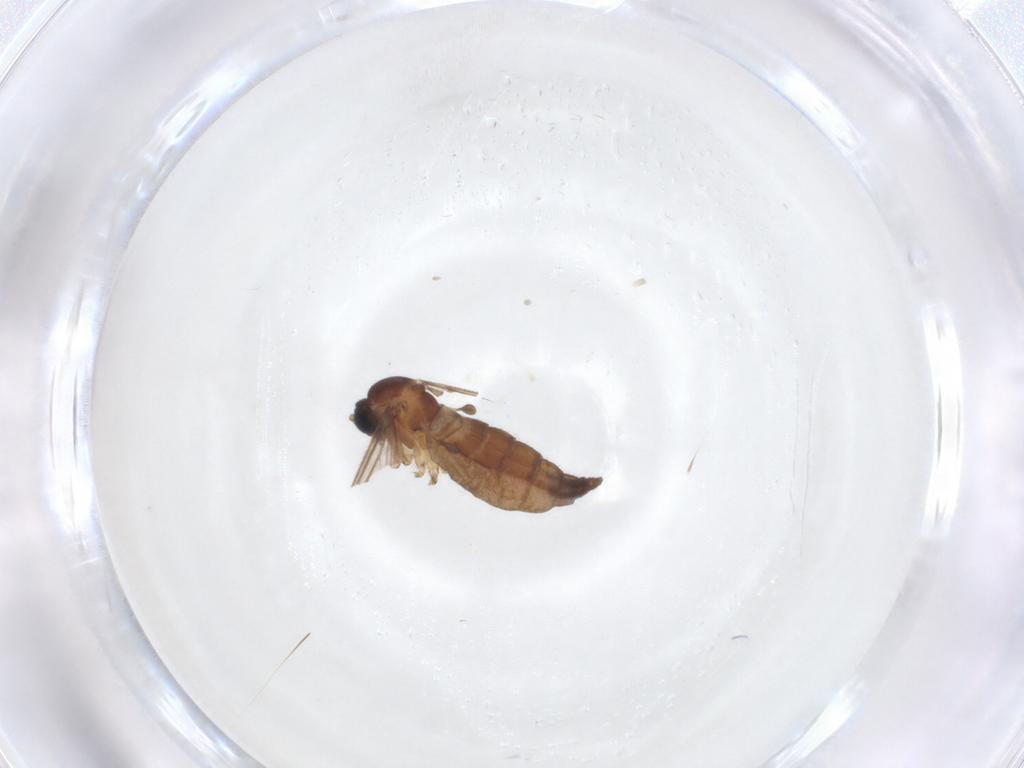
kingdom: Animalia
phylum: Arthropoda
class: Insecta
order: Diptera
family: Sciaridae
